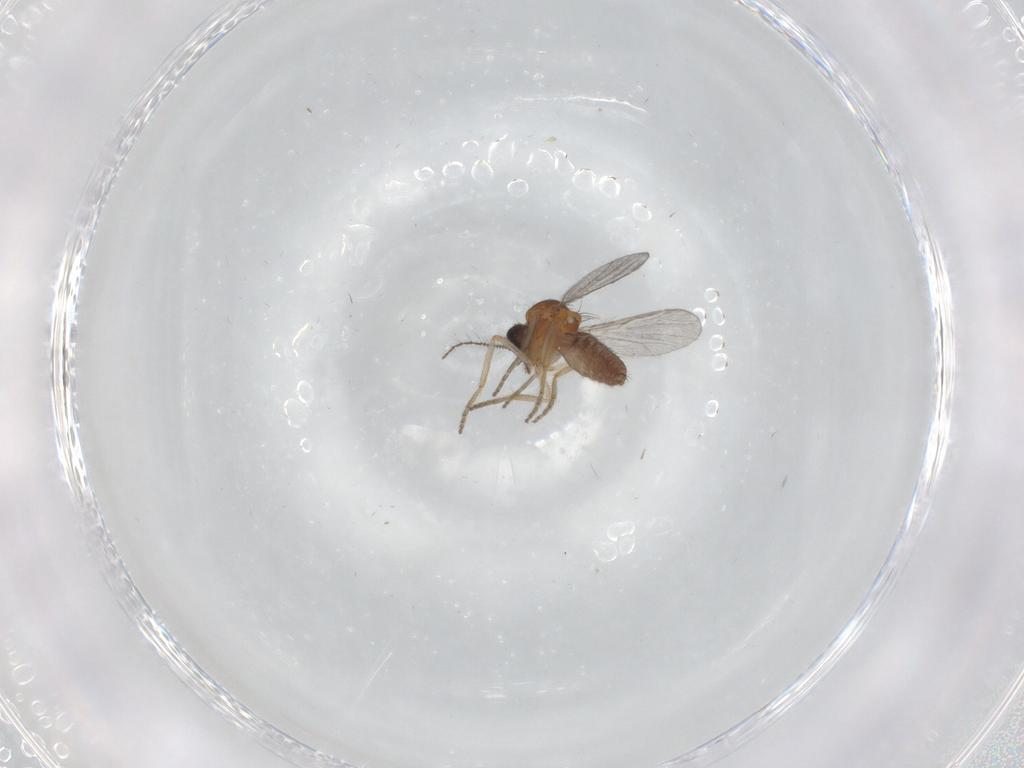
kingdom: Animalia
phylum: Arthropoda
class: Insecta
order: Diptera
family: Ceratopogonidae
